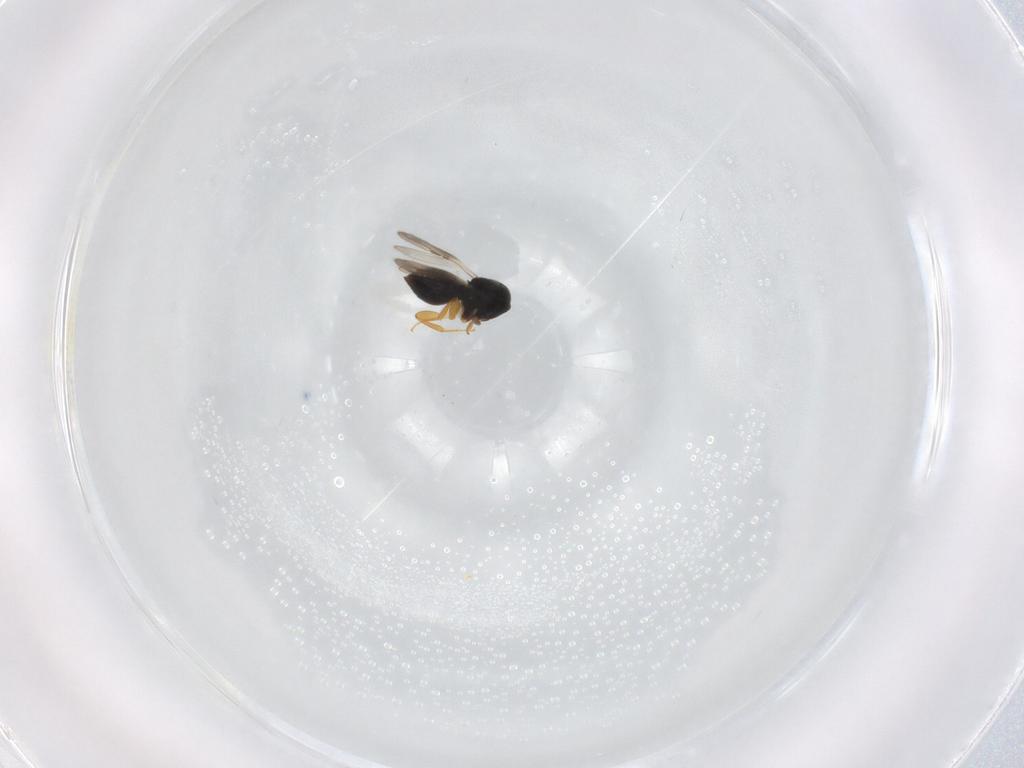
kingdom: Animalia
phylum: Arthropoda
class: Insecta
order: Hymenoptera
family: Ceraphronidae
